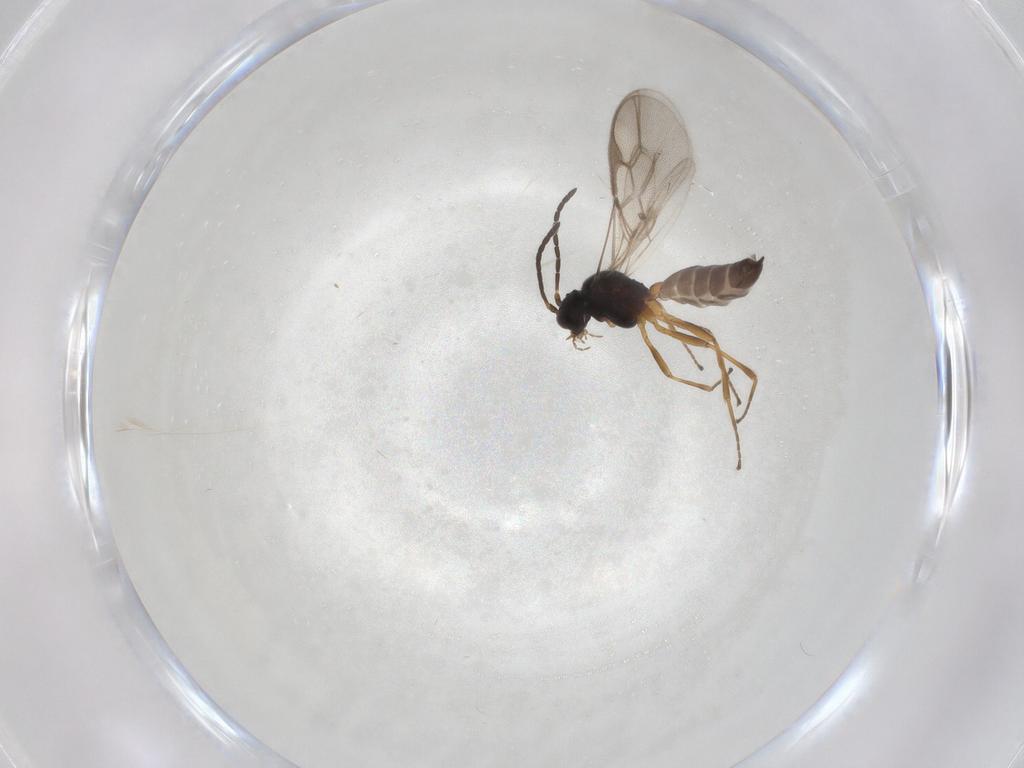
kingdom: Animalia
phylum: Arthropoda
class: Insecta
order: Hymenoptera
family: Braconidae
